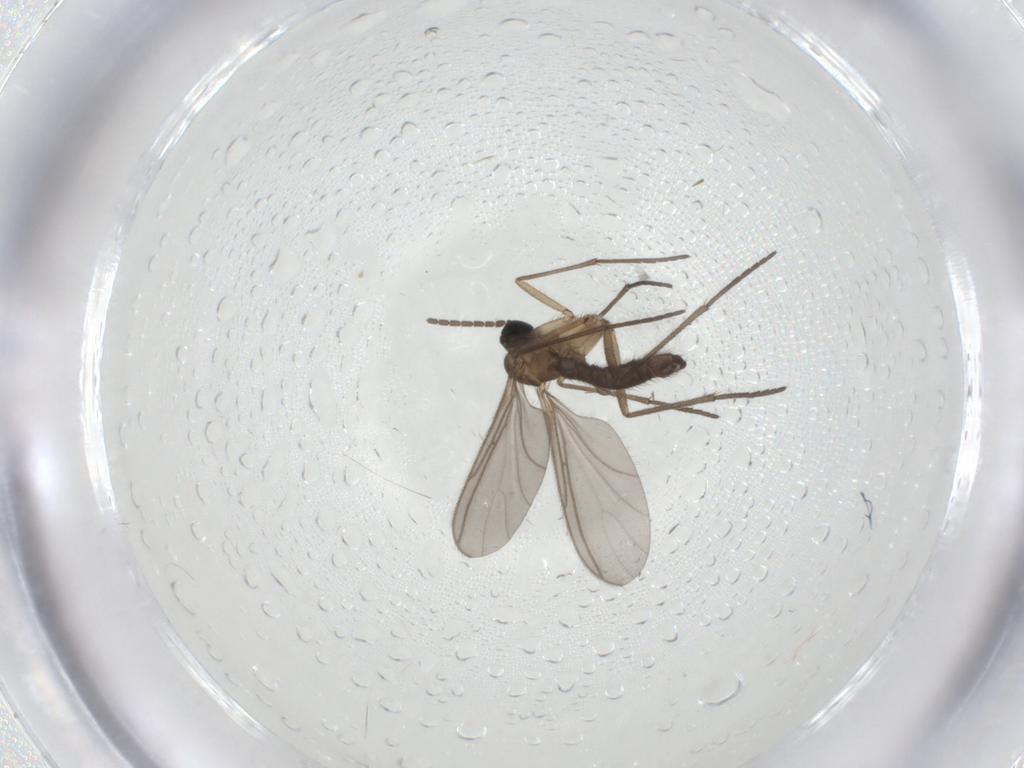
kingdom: Animalia
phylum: Arthropoda
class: Insecta
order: Diptera
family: Sciaridae
